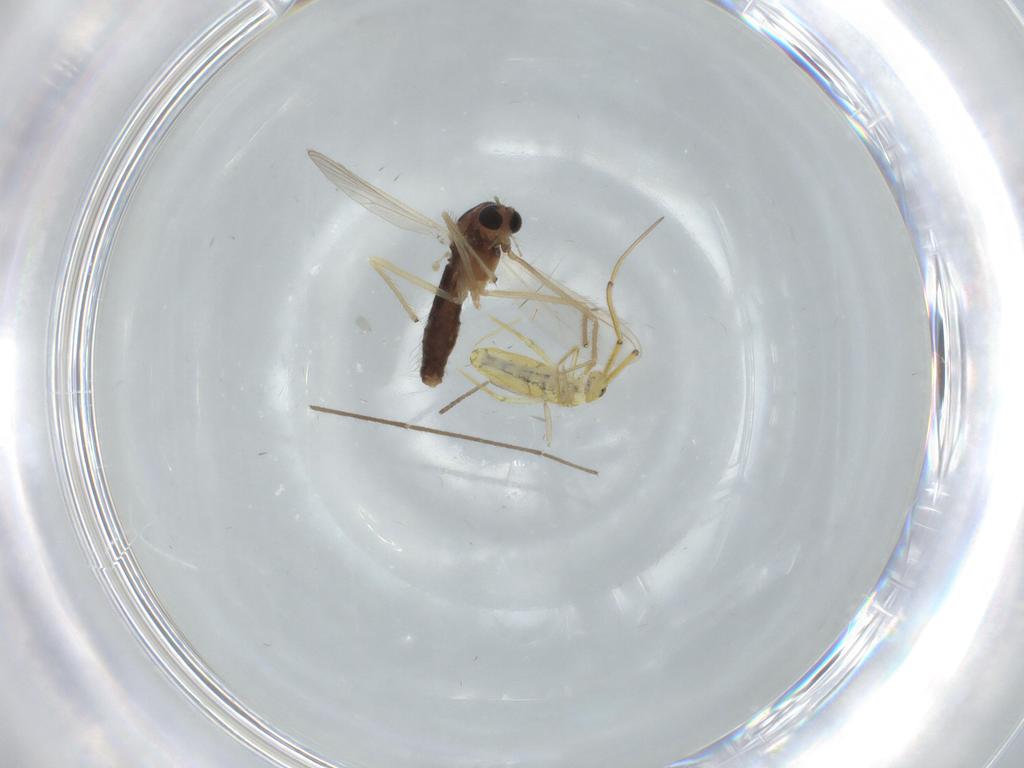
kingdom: Animalia
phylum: Arthropoda
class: Insecta
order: Diptera
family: Chironomidae
